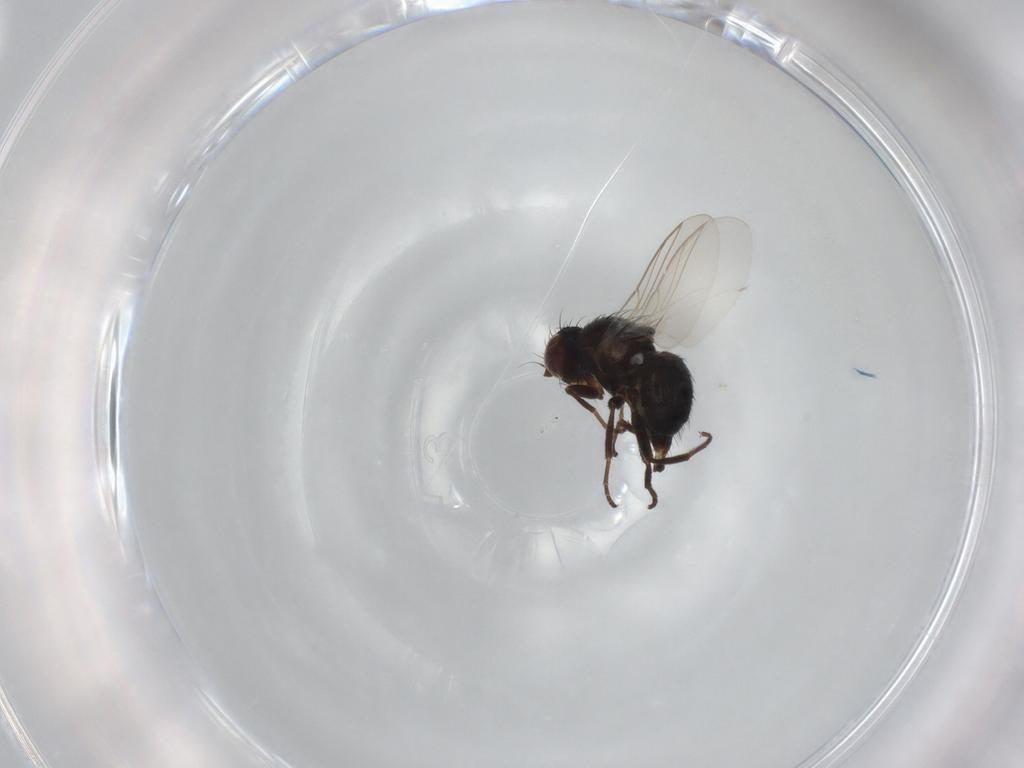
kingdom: Animalia
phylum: Arthropoda
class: Insecta
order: Diptera
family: Agromyzidae
